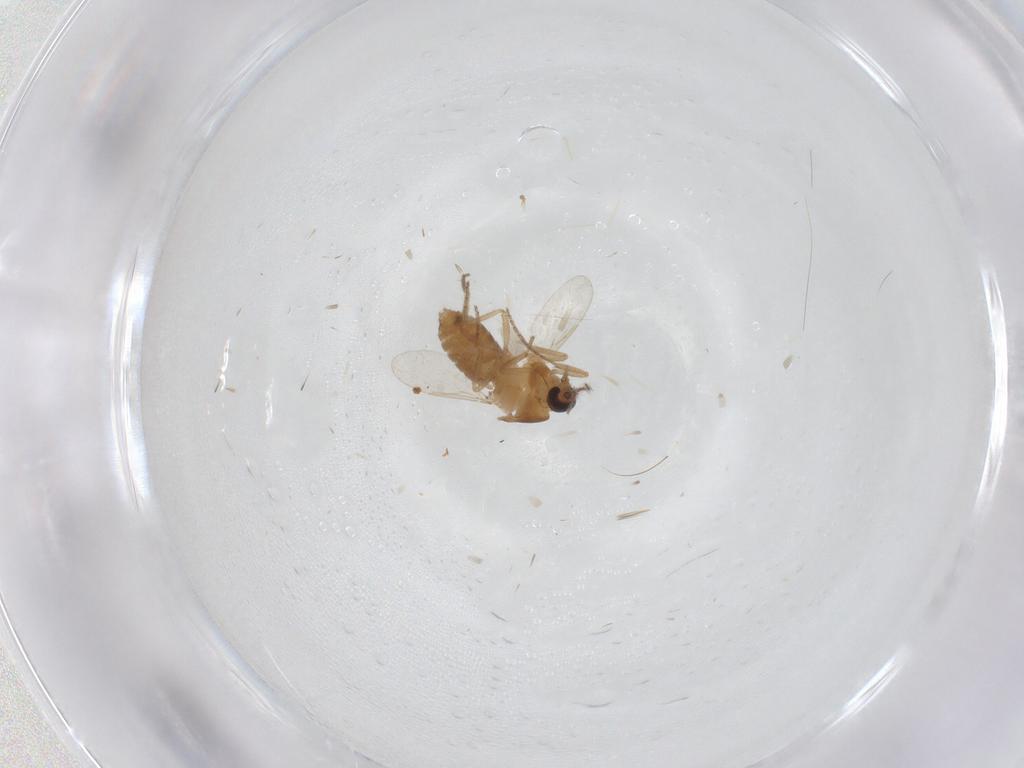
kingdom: Animalia
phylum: Arthropoda
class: Insecta
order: Diptera
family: Ceratopogonidae
